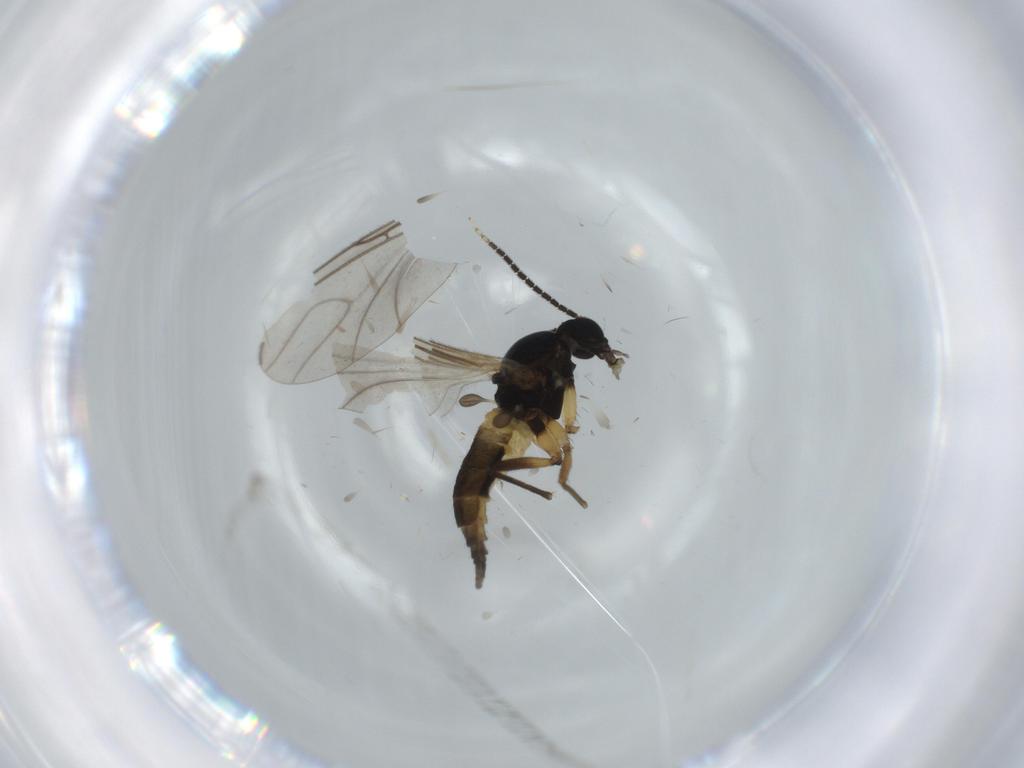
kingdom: Animalia
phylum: Arthropoda
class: Insecta
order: Diptera
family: Sciaridae
